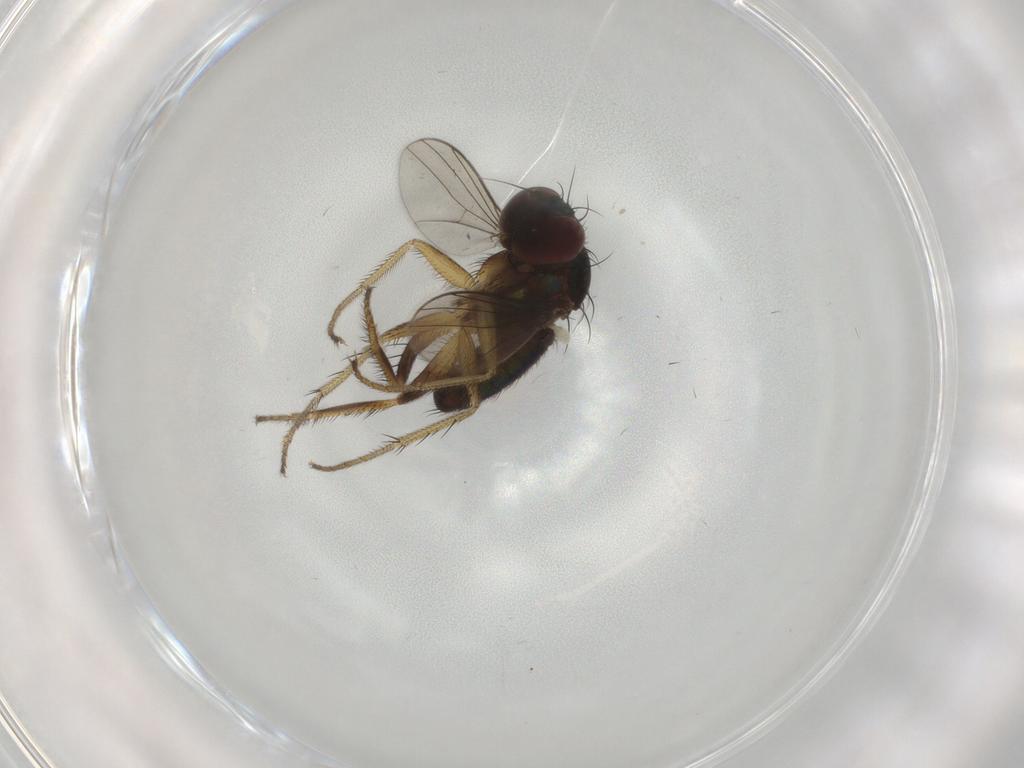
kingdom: Animalia
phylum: Arthropoda
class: Insecta
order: Diptera
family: Ceratopogonidae
